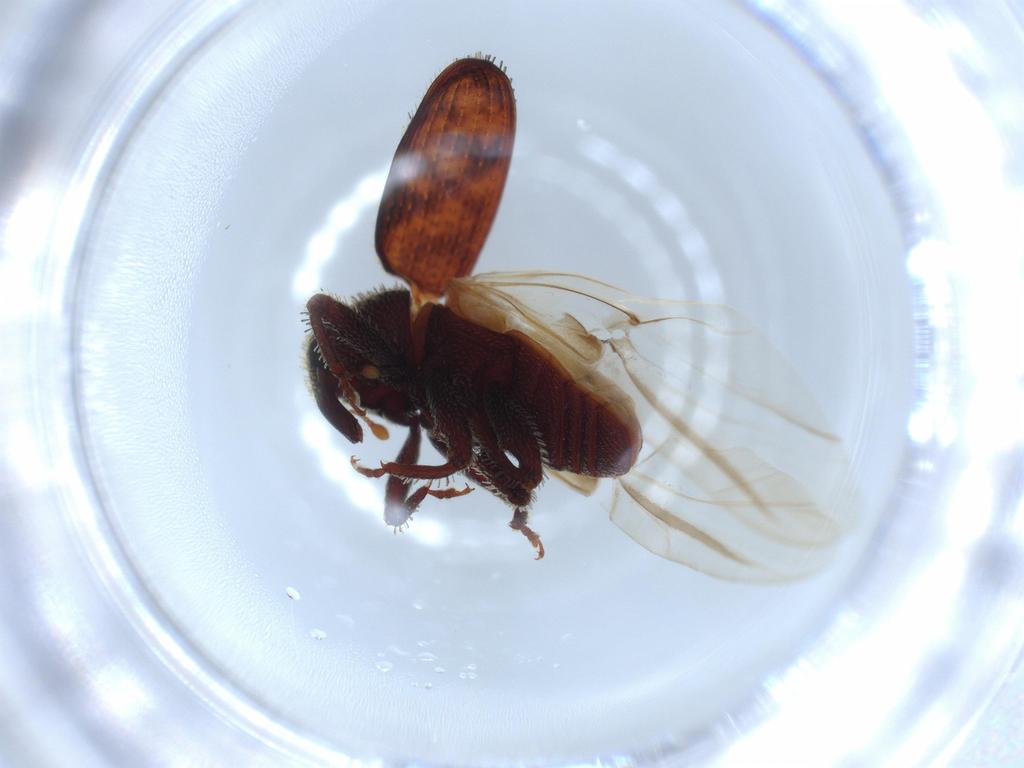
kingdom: Animalia
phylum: Arthropoda
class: Insecta
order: Coleoptera
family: Curculionidae
